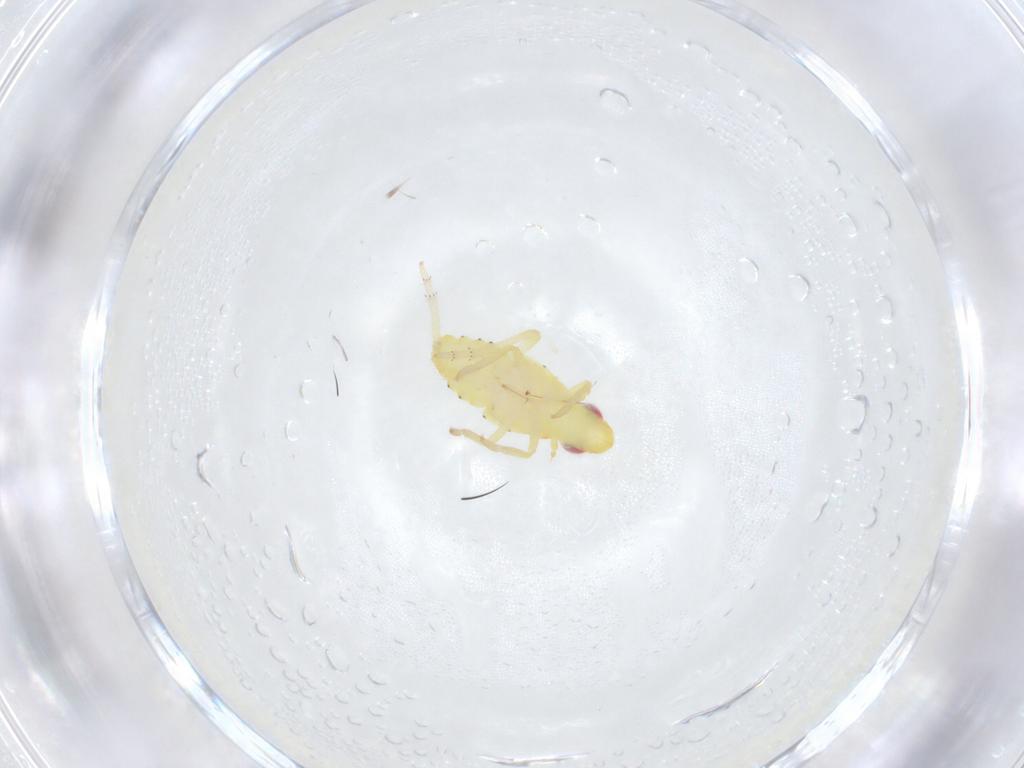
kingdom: Animalia
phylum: Arthropoda
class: Insecta
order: Hemiptera
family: Tropiduchidae
